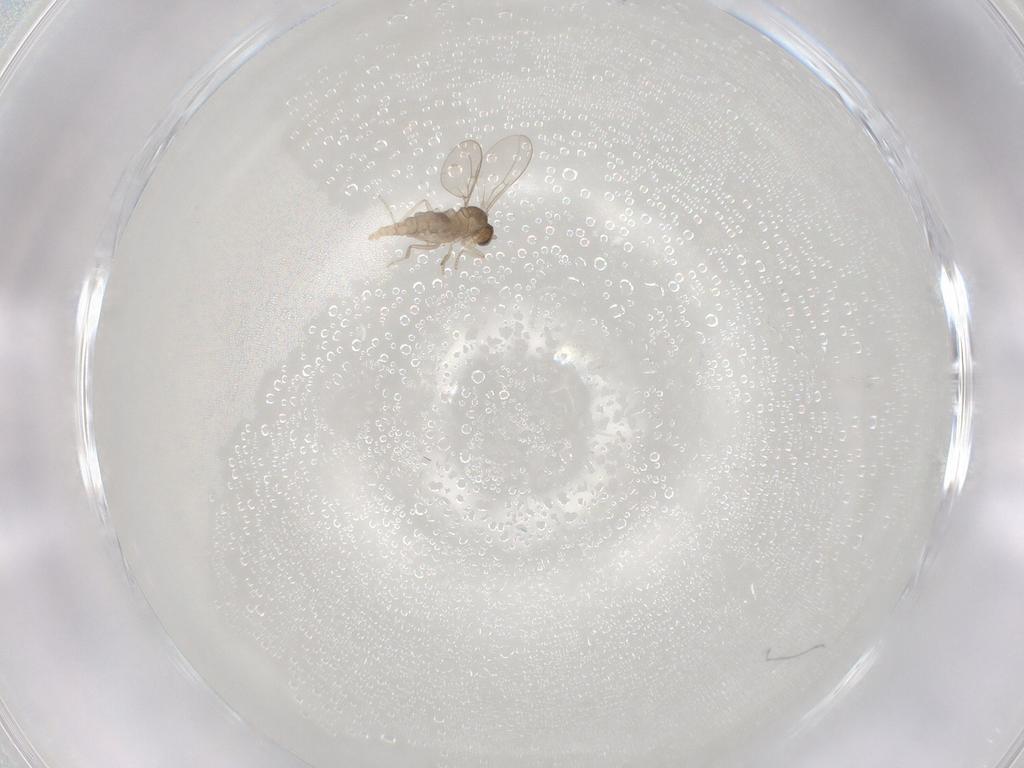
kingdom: Animalia
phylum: Arthropoda
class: Insecta
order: Diptera
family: Cecidomyiidae
